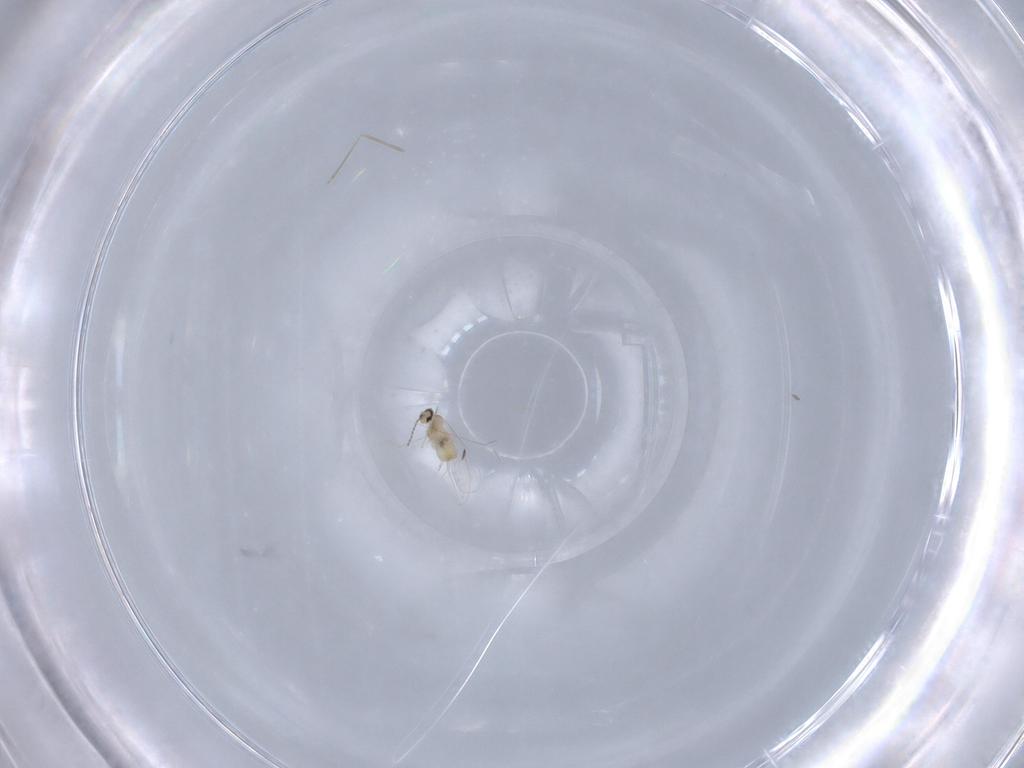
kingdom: Animalia
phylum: Arthropoda
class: Insecta
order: Diptera
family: Cecidomyiidae
